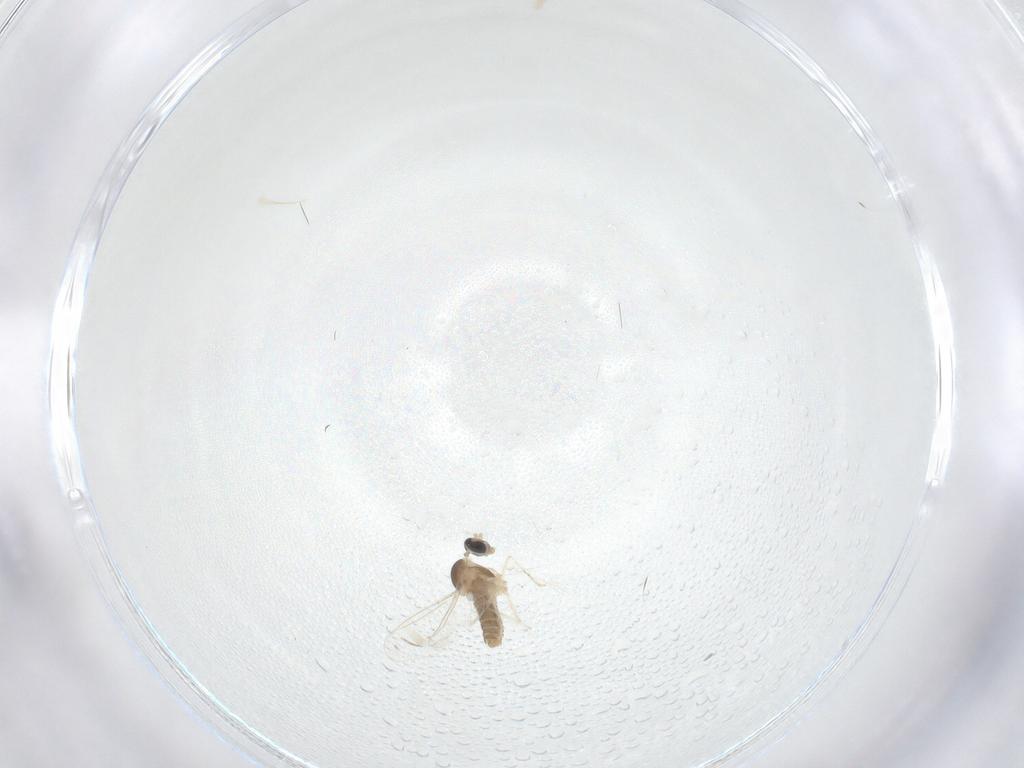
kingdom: Animalia
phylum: Arthropoda
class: Insecta
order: Diptera
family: Cecidomyiidae
